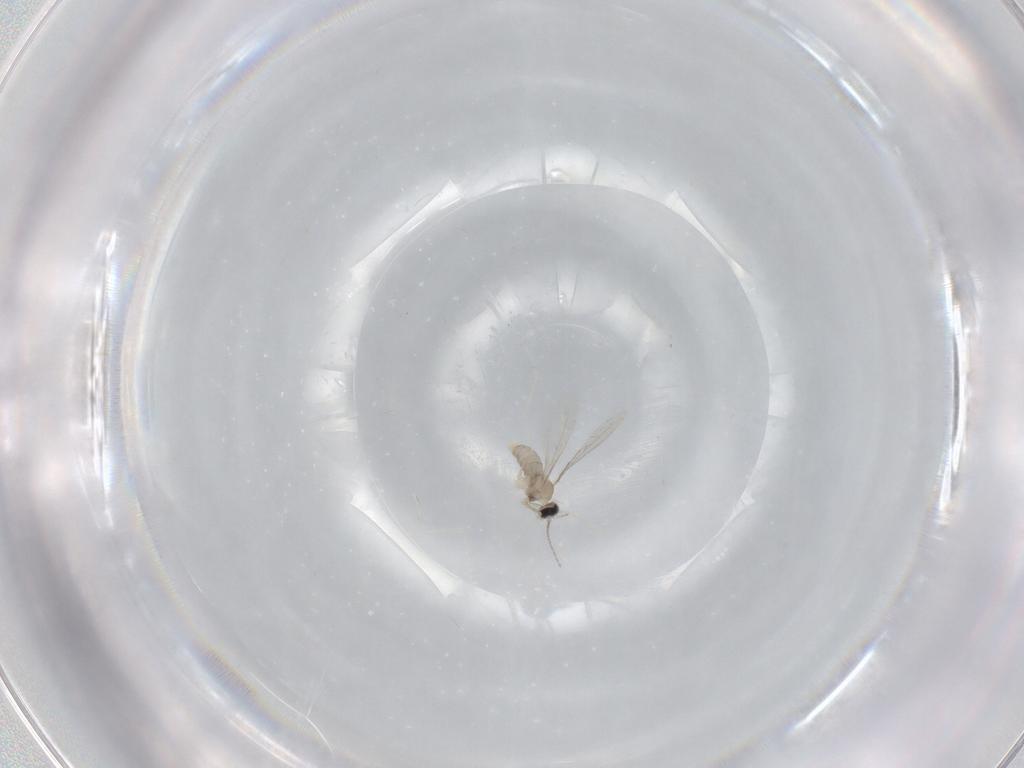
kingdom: Animalia
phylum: Arthropoda
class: Insecta
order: Diptera
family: Cecidomyiidae
